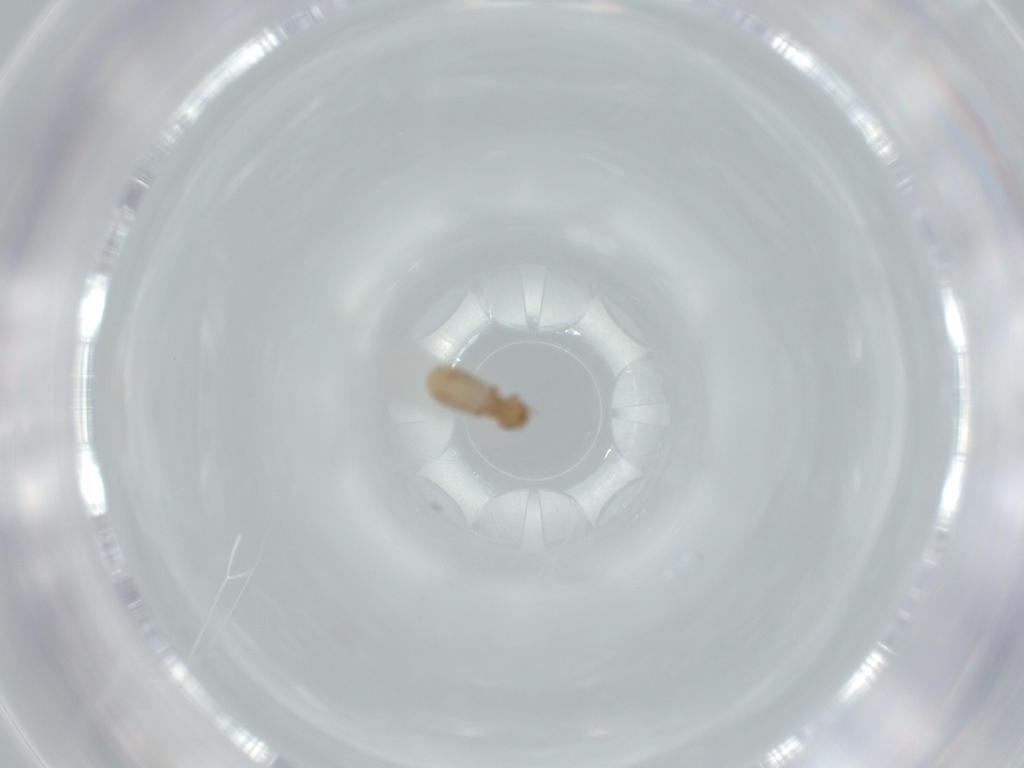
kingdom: Animalia
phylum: Arthropoda
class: Insecta
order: Psocodea
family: Liposcelididae
